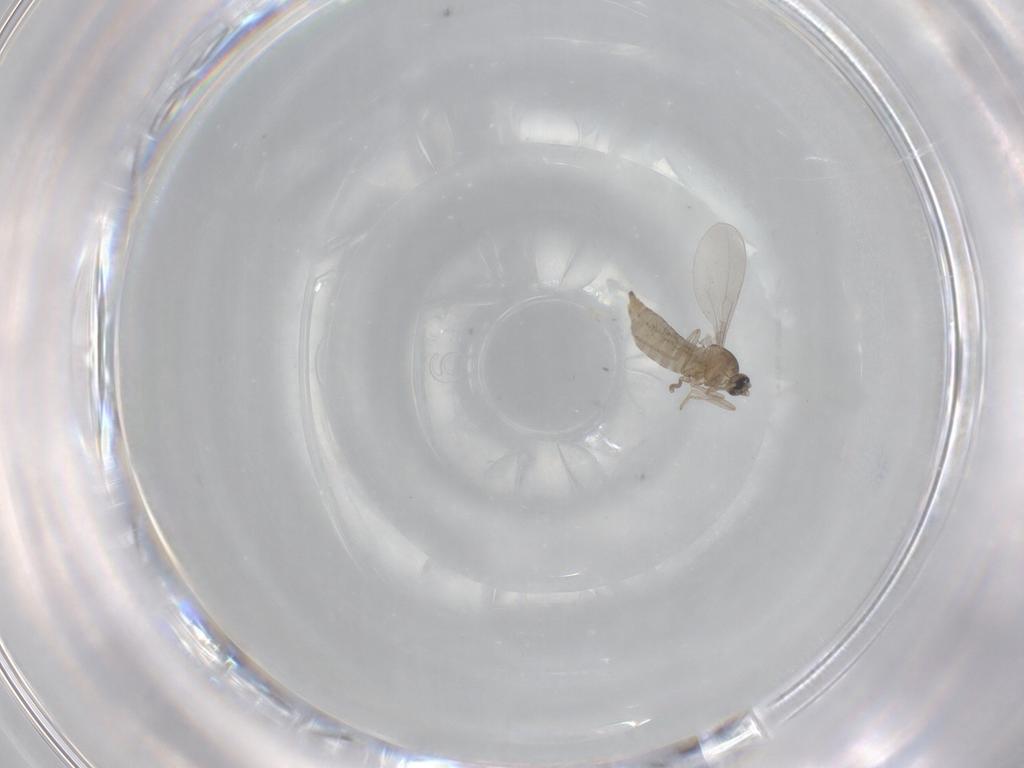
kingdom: Animalia
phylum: Arthropoda
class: Insecta
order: Diptera
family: Cecidomyiidae
